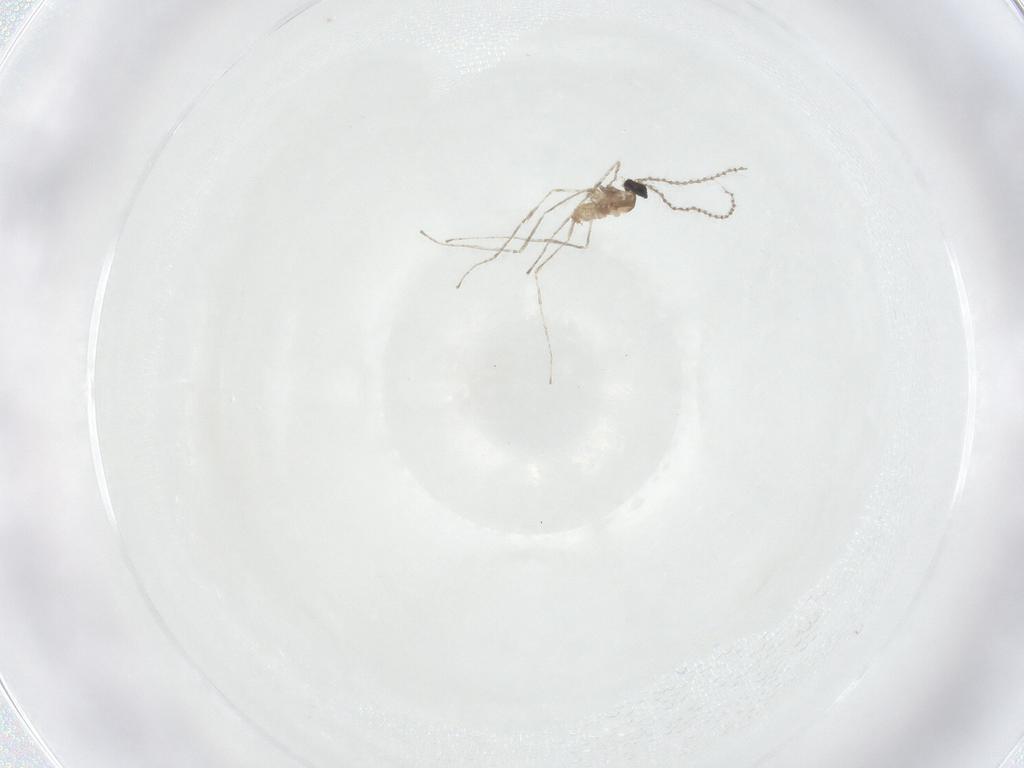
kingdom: Animalia
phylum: Arthropoda
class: Insecta
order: Diptera
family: Cecidomyiidae
